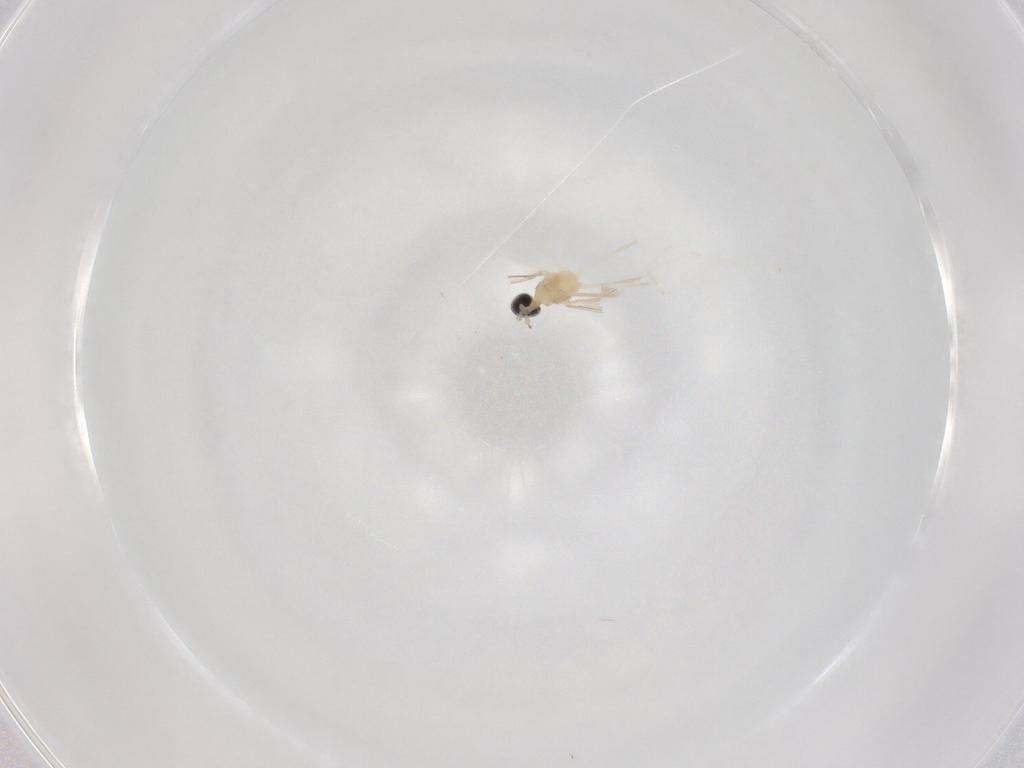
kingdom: Animalia
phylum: Arthropoda
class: Insecta
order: Diptera
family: Cecidomyiidae
